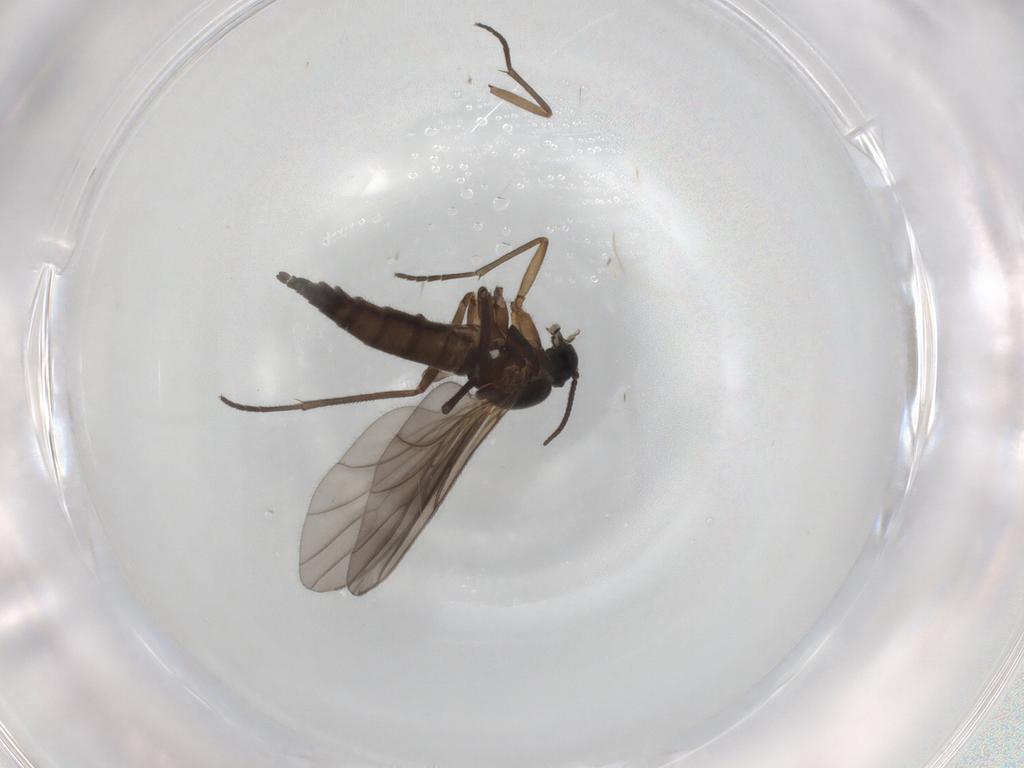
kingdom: Animalia
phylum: Arthropoda
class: Insecta
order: Diptera
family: Sciaridae
